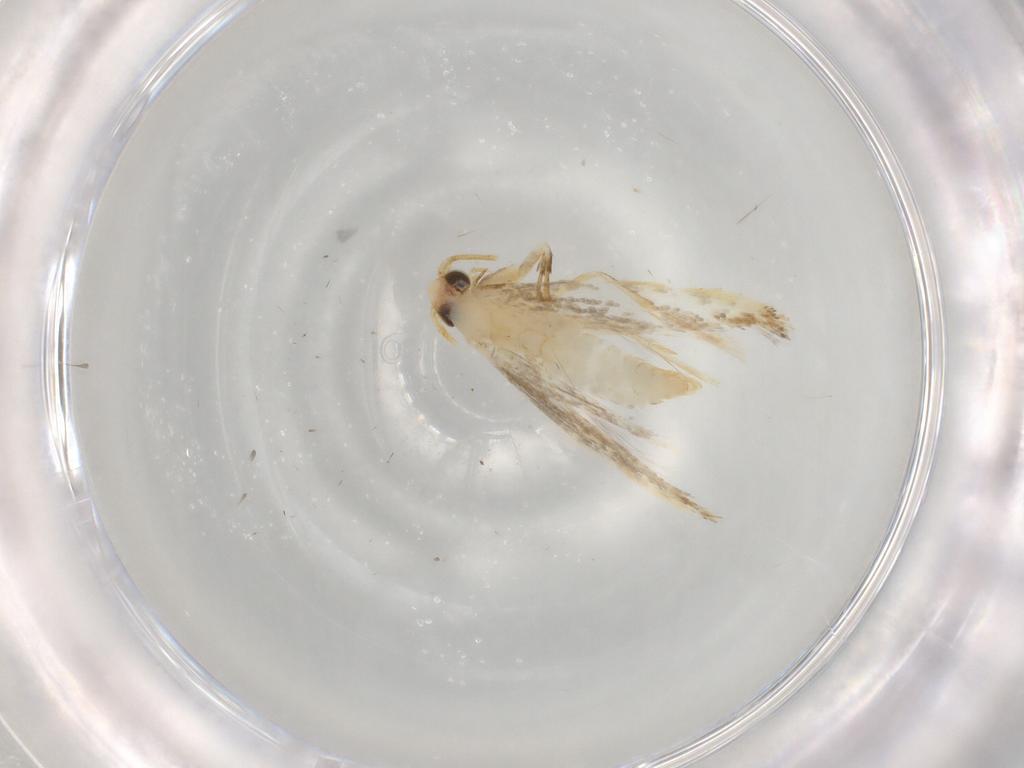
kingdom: Animalia
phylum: Arthropoda
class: Insecta
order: Lepidoptera
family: Tineidae
